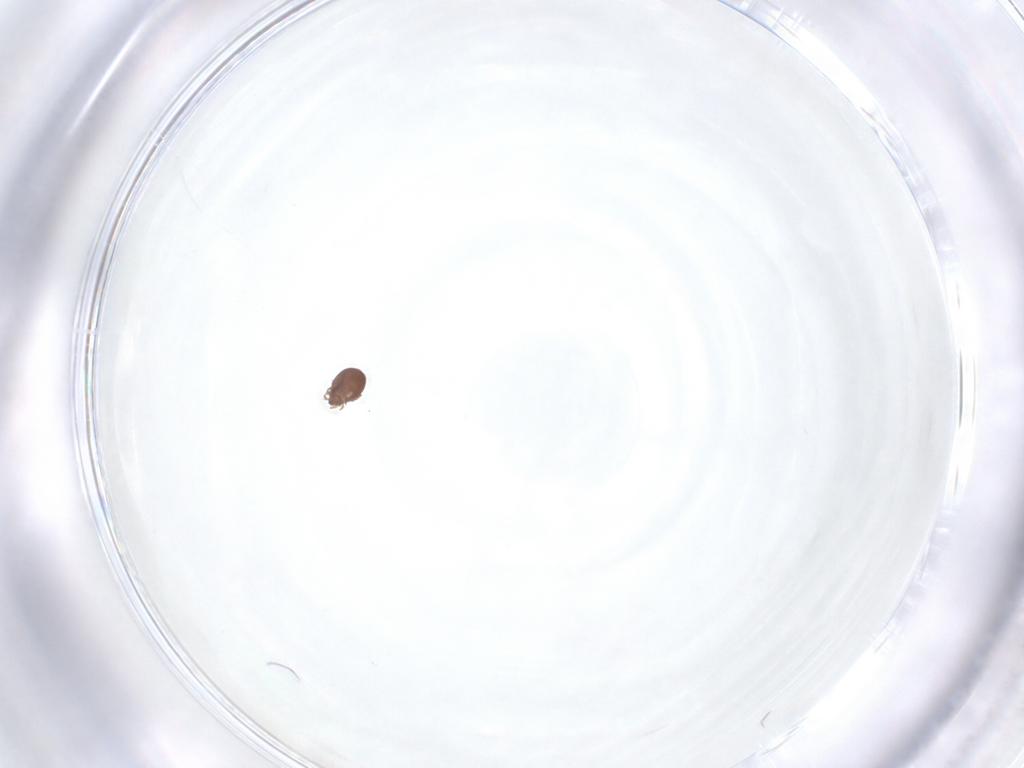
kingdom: Animalia
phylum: Arthropoda
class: Arachnida
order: Sarcoptiformes
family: Dendroeremaeidae
